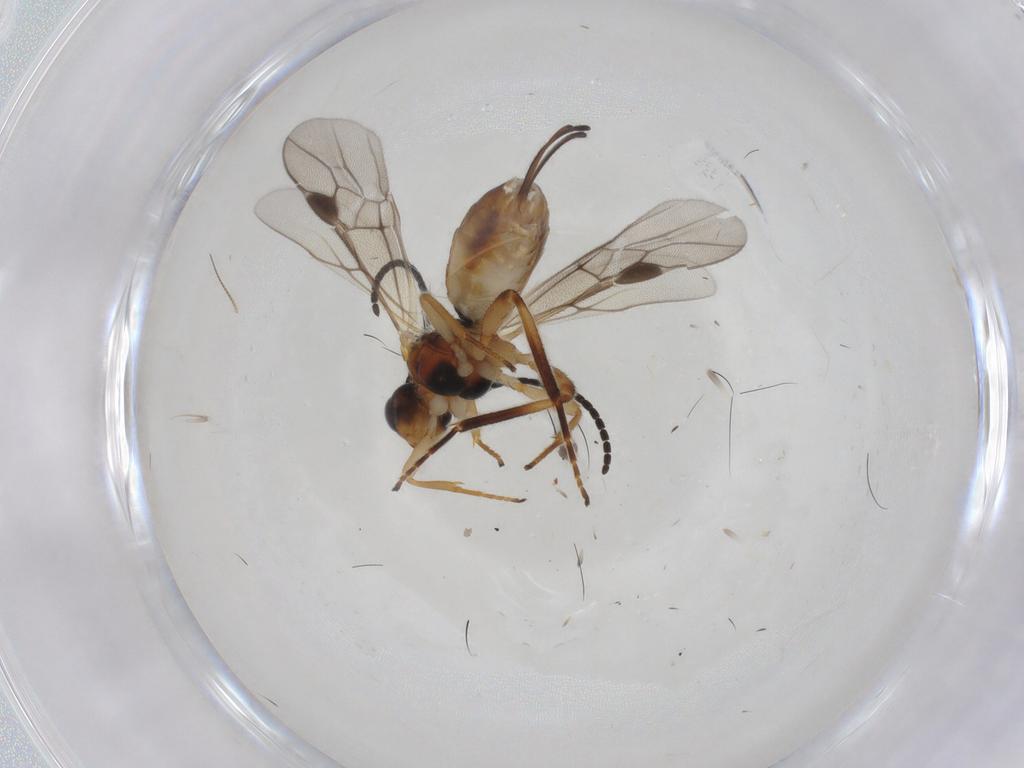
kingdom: Animalia
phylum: Arthropoda
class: Insecta
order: Hymenoptera
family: Braconidae
